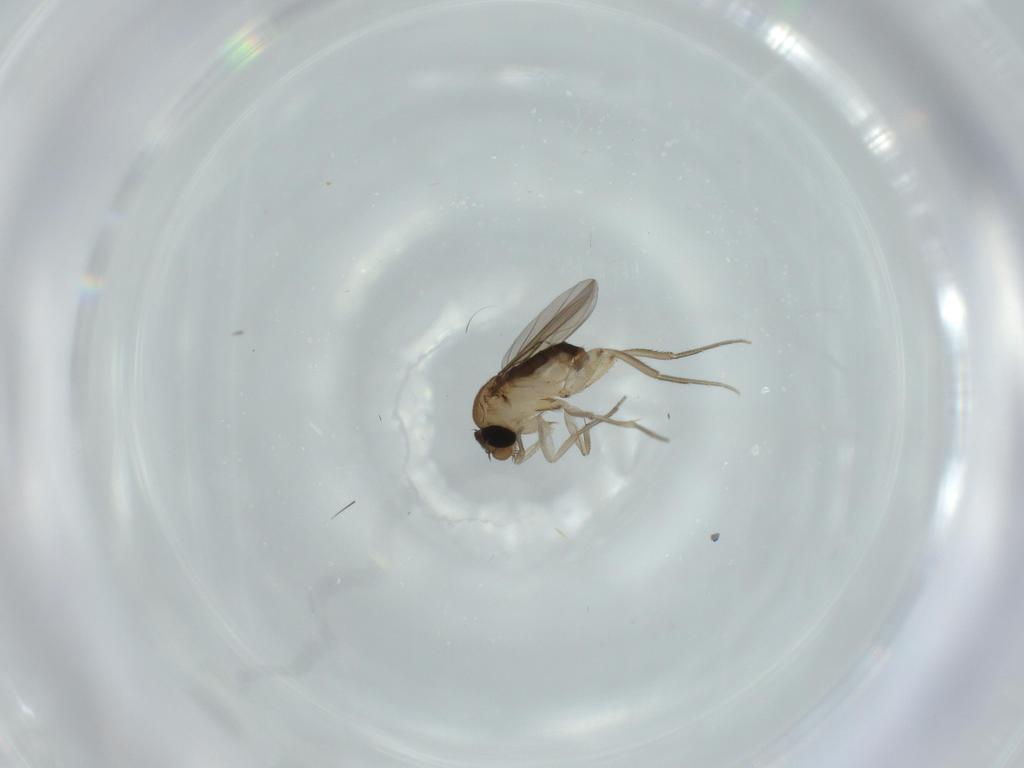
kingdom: Animalia
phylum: Arthropoda
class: Insecta
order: Diptera
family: Phoridae
